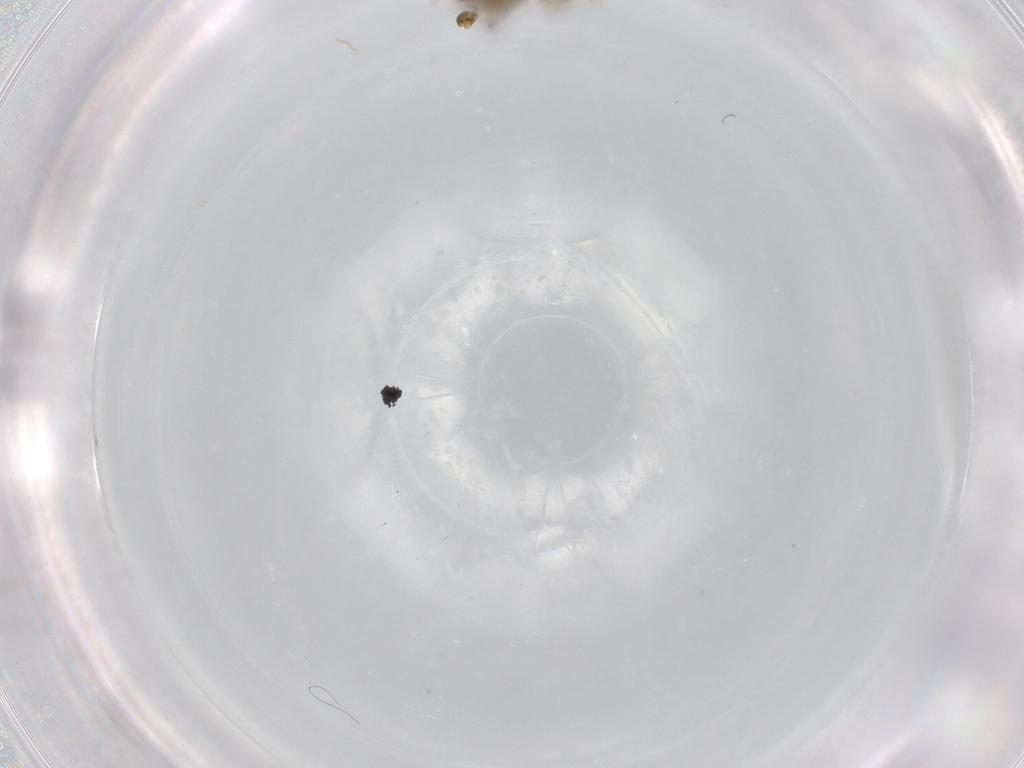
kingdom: Animalia
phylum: Arthropoda
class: Insecta
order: Diptera
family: Chironomidae
